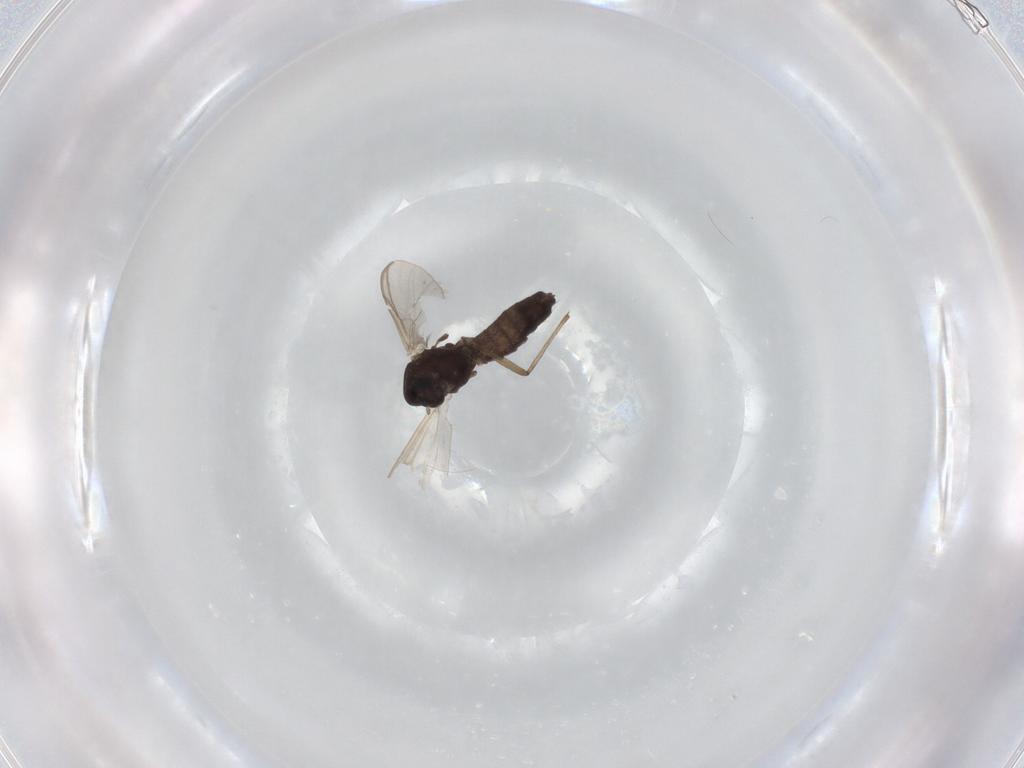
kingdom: Animalia
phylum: Arthropoda
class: Insecta
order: Diptera
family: Chironomidae
